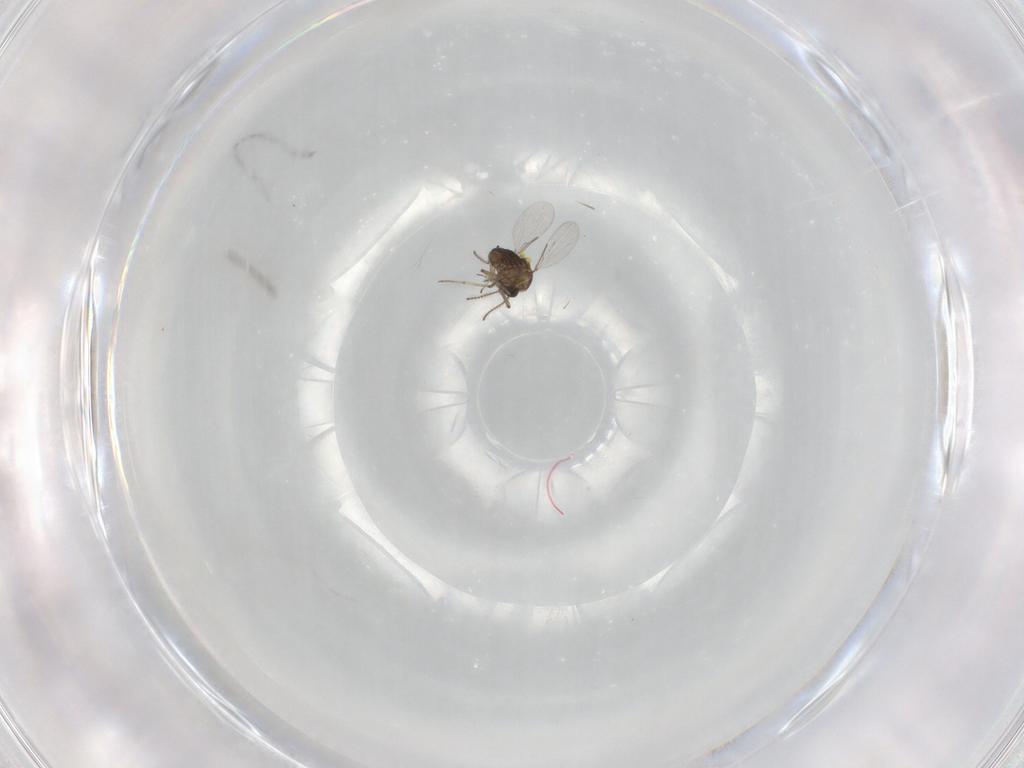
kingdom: Animalia
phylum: Arthropoda
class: Insecta
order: Diptera
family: Ceratopogonidae
